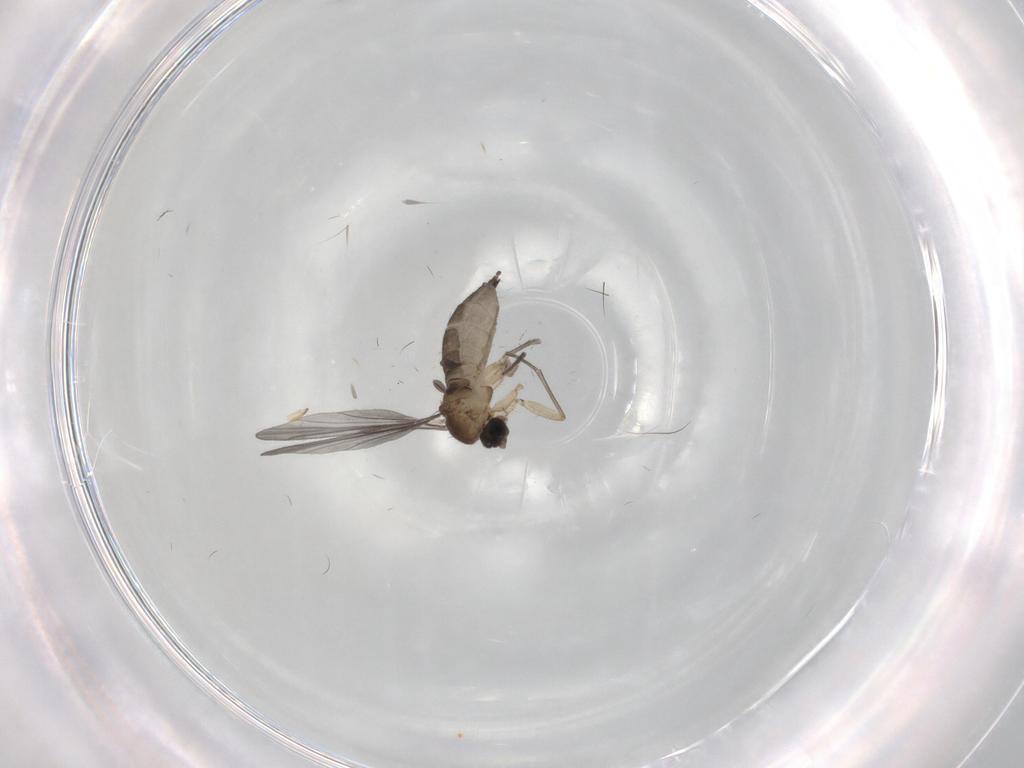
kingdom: Animalia
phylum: Arthropoda
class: Insecta
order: Diptera
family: Sciaridae
